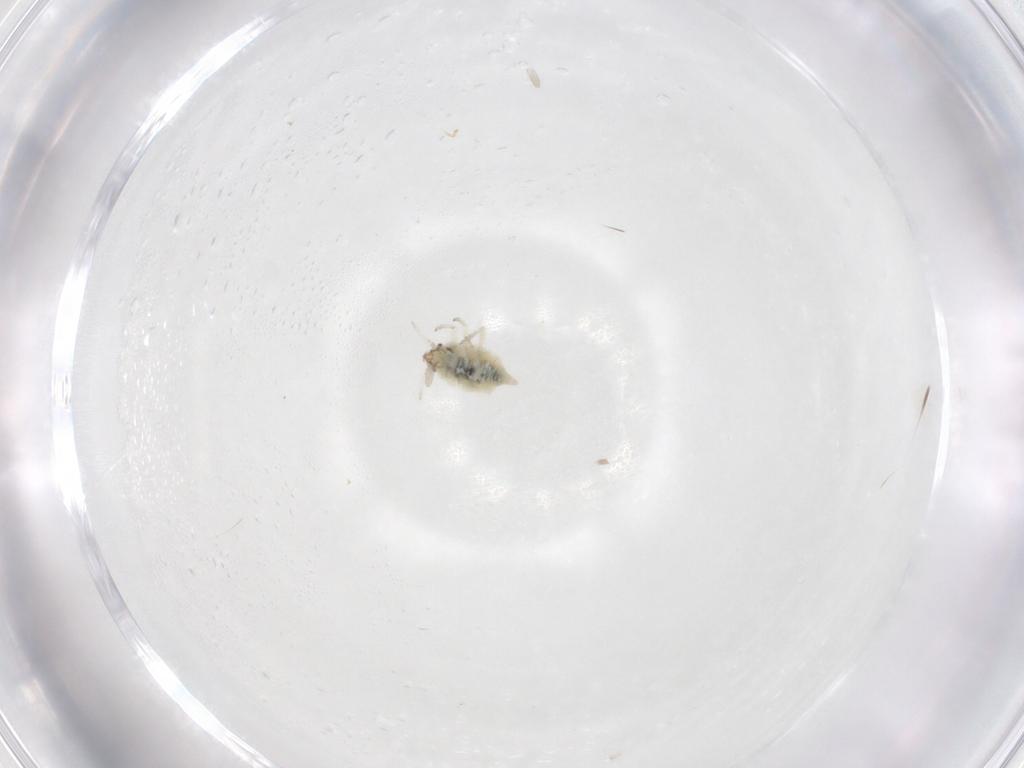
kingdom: Animalia
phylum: Arthropoda
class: Insecta
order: Neuroptera
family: Coniopterygidae
